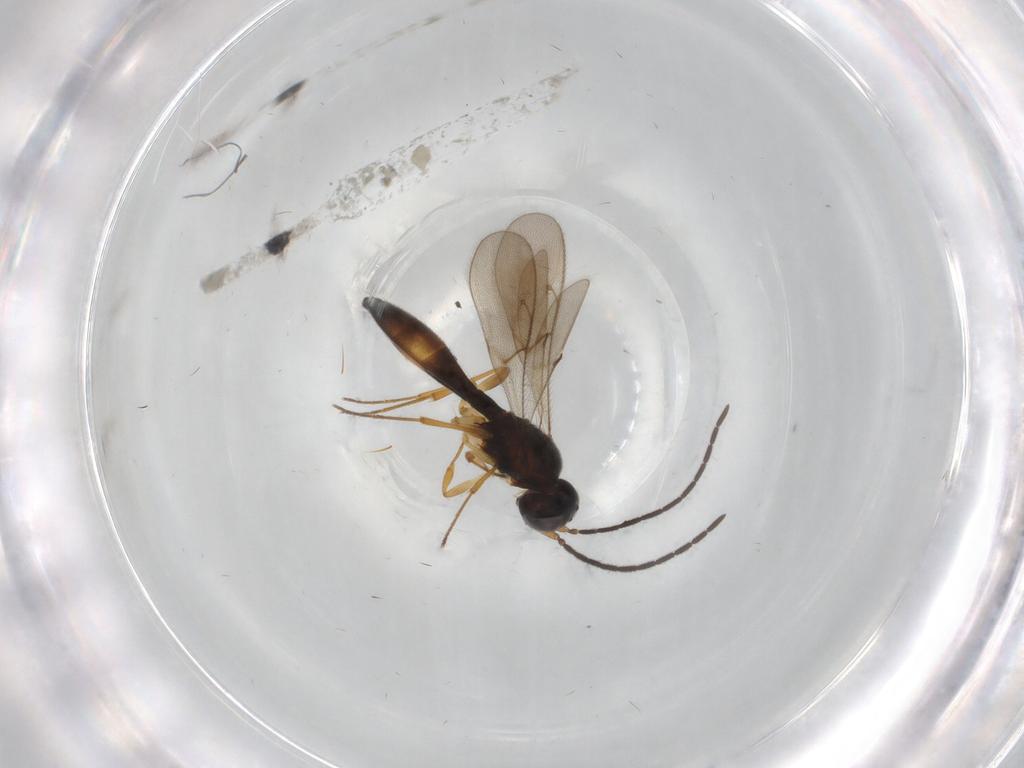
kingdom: Animalia
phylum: Arthropoda
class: Insecta
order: Hymenoptera
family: Scelionidae
